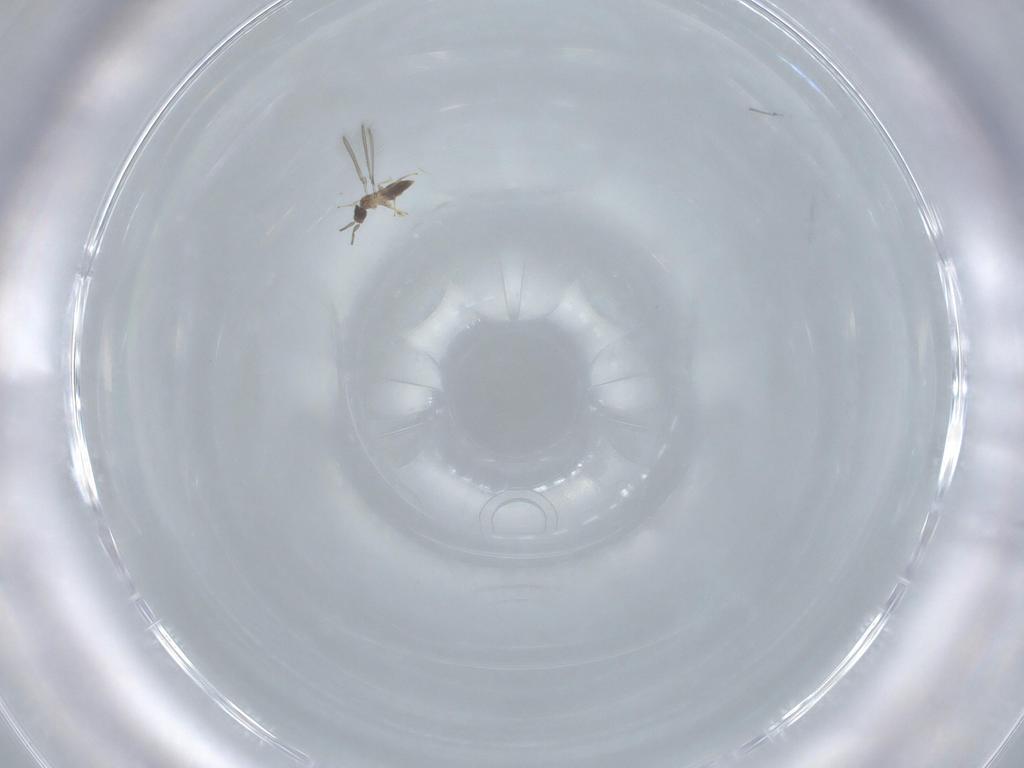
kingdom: Animalia
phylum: Arthropoda
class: Insecta
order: Hymenoptera
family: Mymaridae
